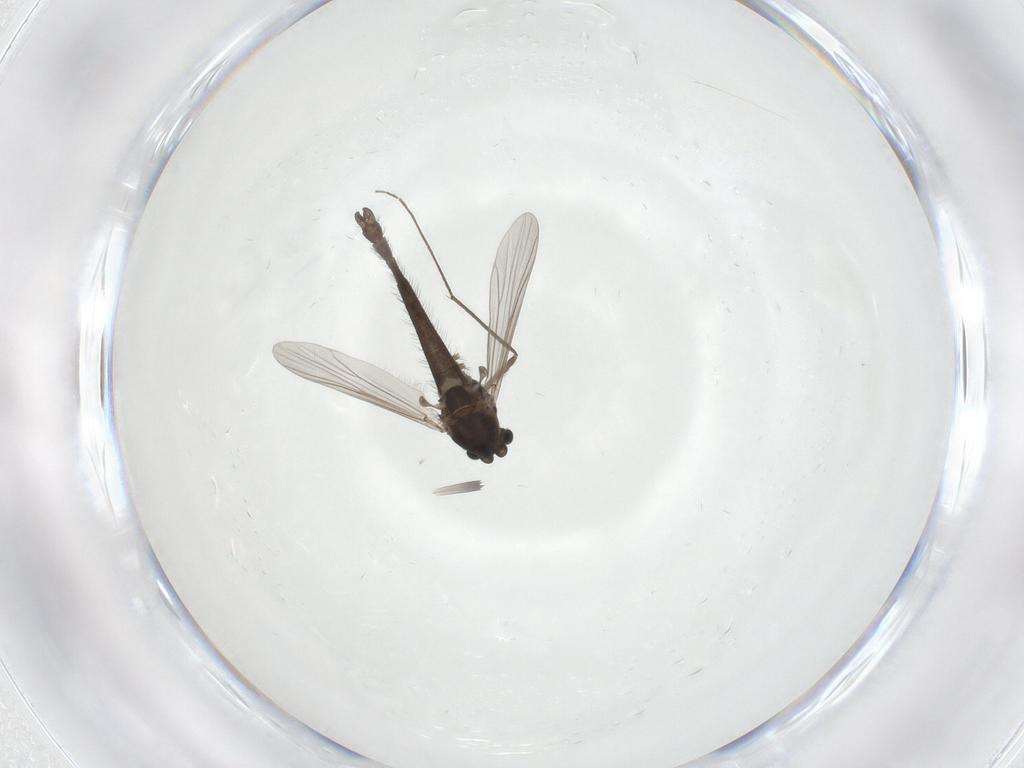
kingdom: Animalia
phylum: Arthropoda
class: Insecta
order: Diptera
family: Chironomidae
